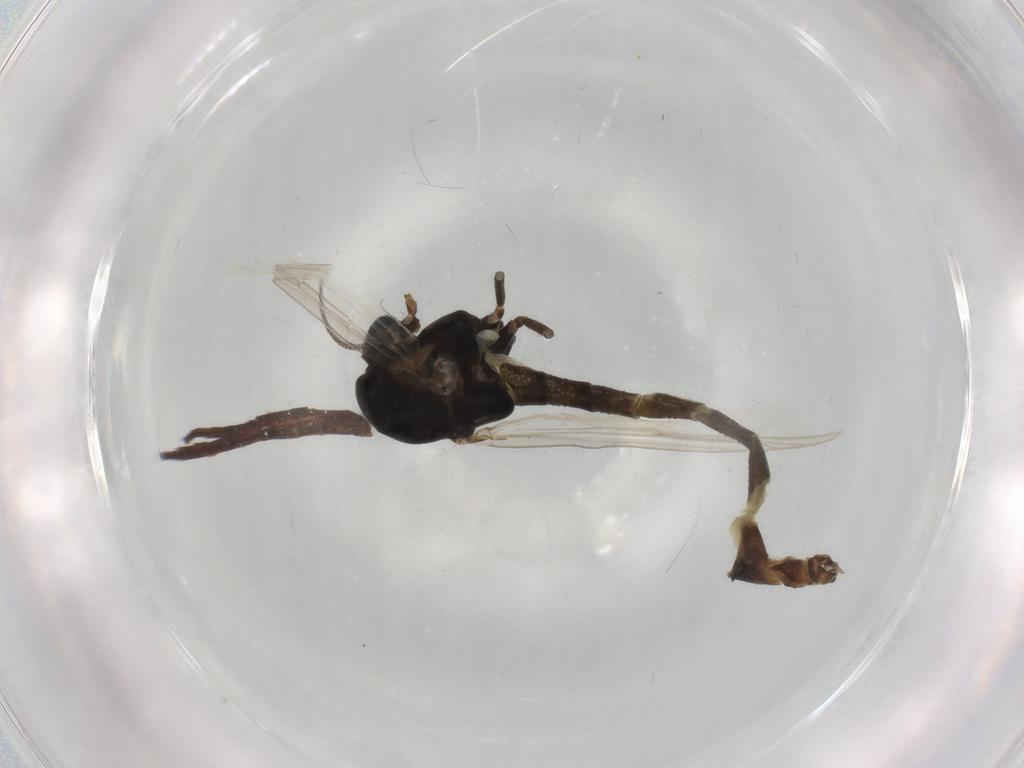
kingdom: Animalia
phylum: Arthropoda
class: Insecta
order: Diptera
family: Chironomidae
